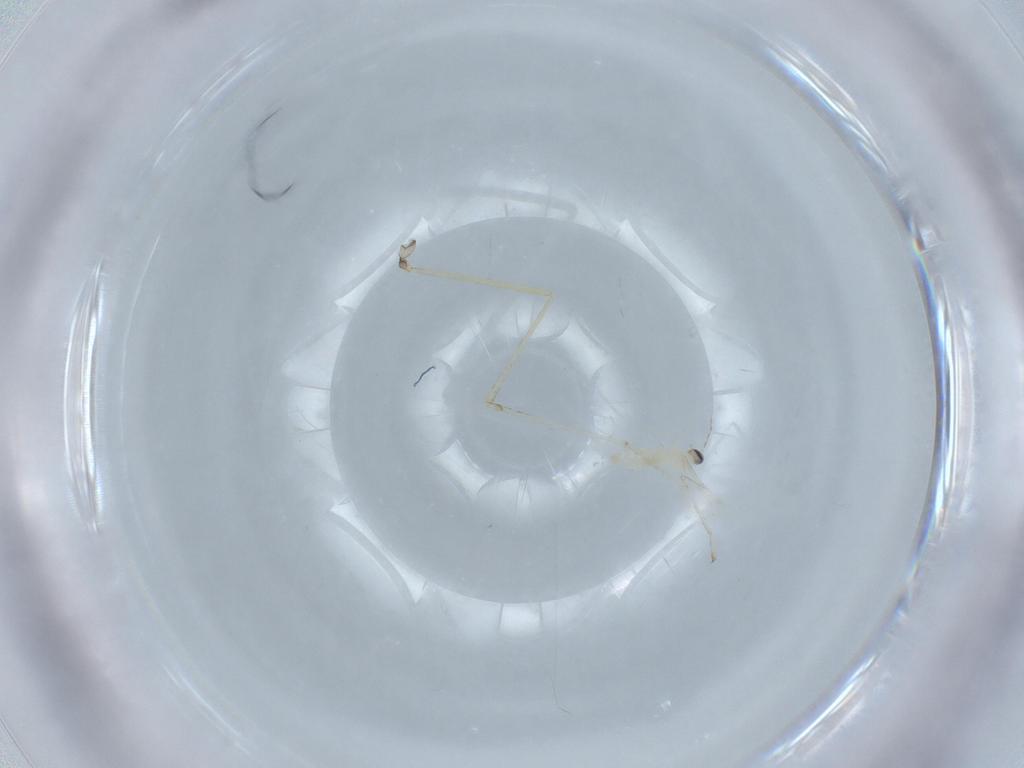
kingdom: Animalia
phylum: Arthropoda
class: Insecta
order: Diptera
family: Cecidomyiidae
